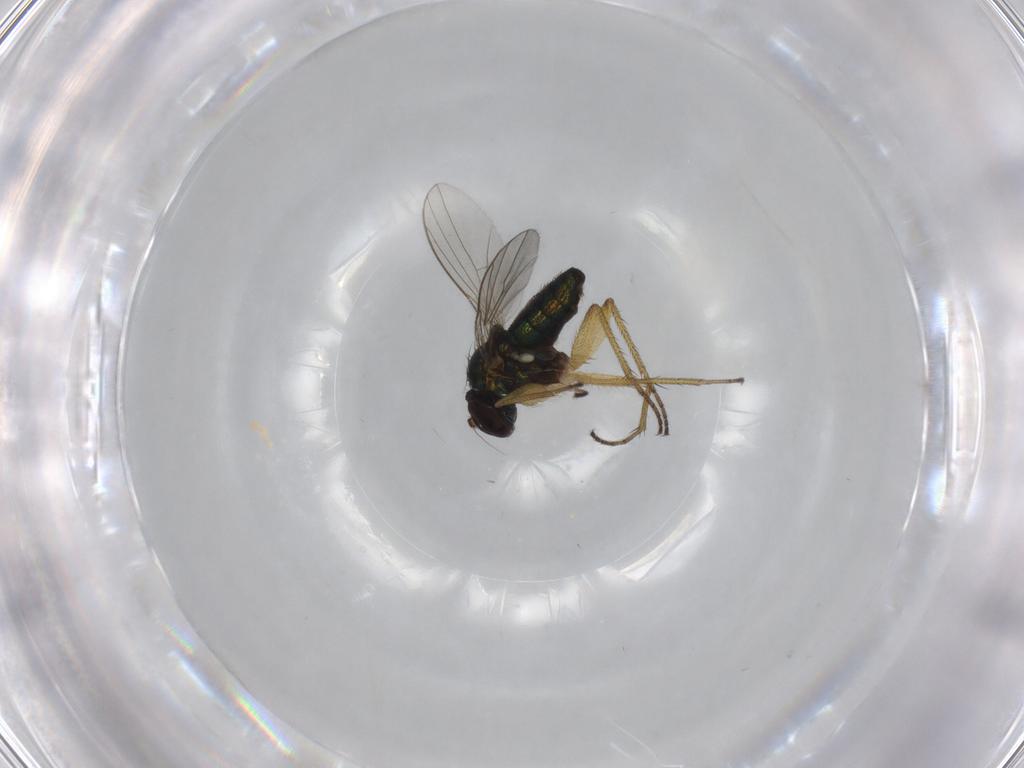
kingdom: Animalia
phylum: Arthropoda
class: Insecta
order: Diptera
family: Dolichopodidae
